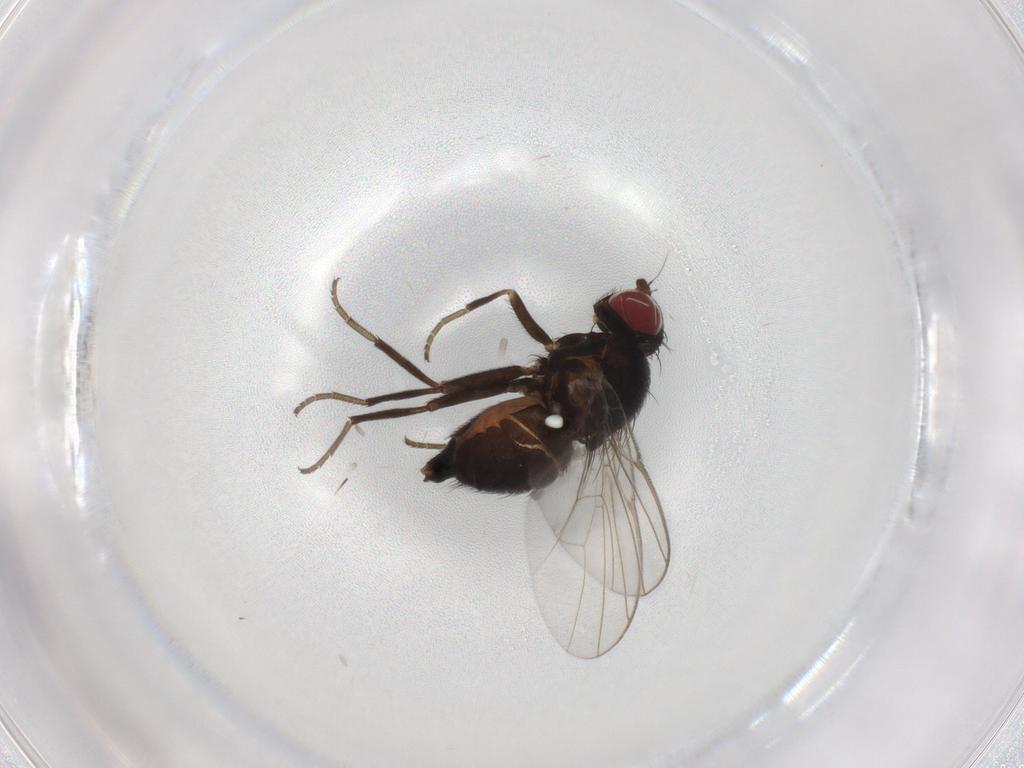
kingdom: Animalia
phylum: Arthropoda
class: Insecta
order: Diptera
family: Agromyzidae
